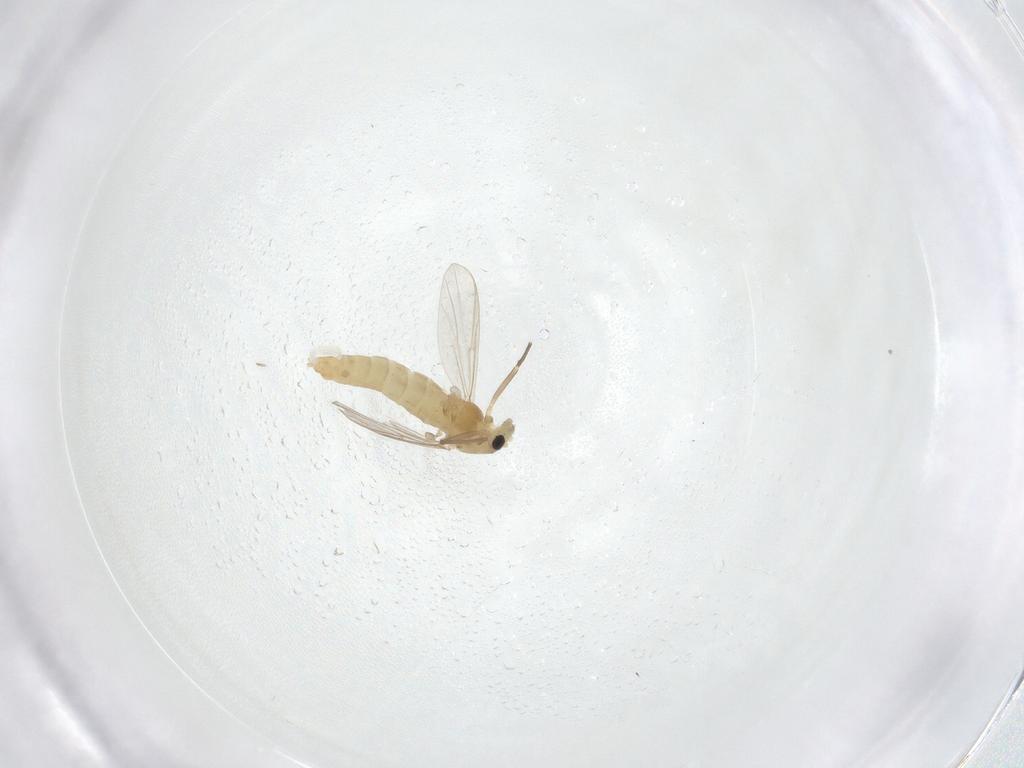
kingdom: Animalia
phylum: Arthropoda
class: Insecta
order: Diptera
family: Chironomidae
